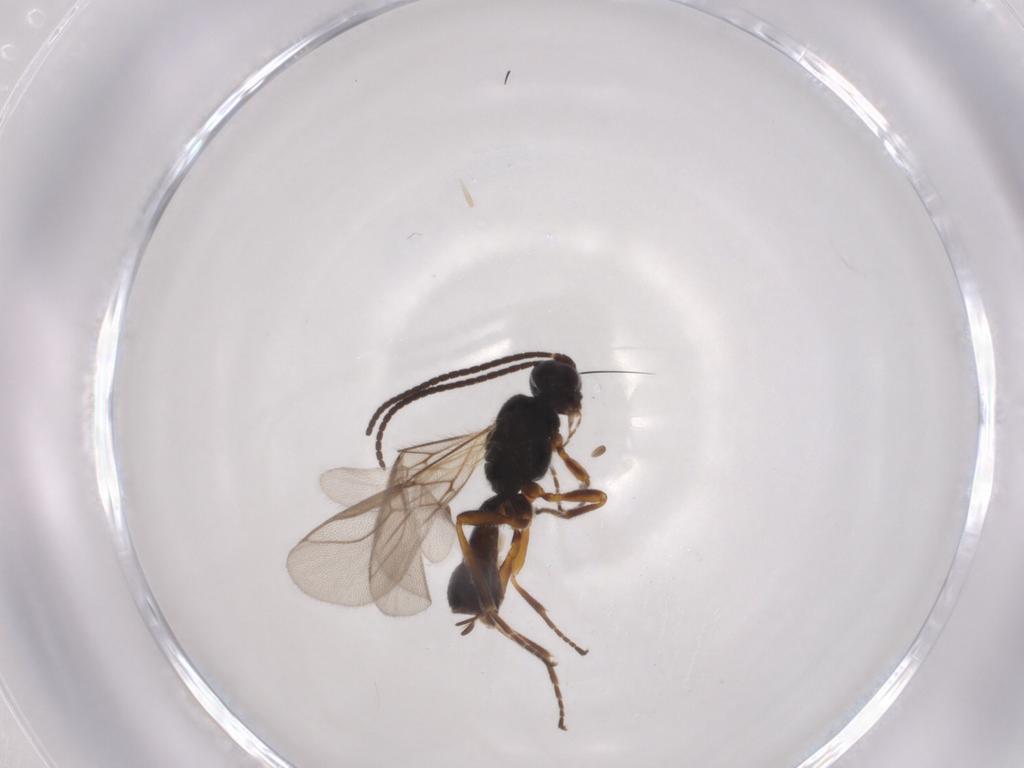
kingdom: Animalia
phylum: Arthropoda
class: Insecta
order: Hymenoptera
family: Braconidae
